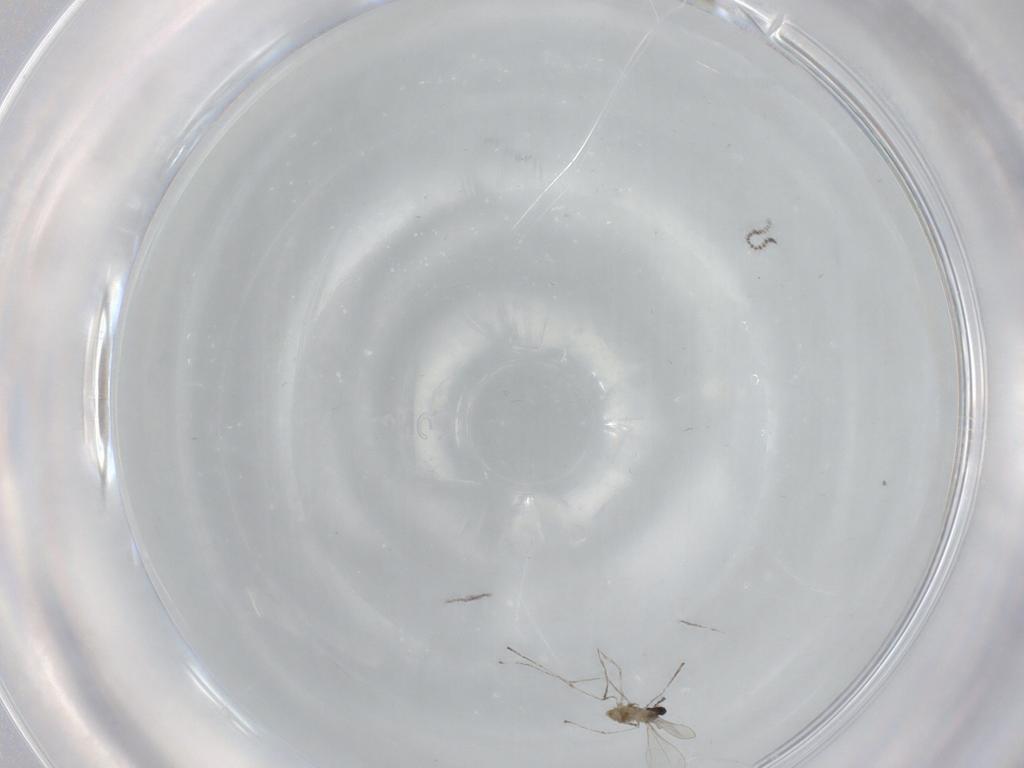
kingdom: Animalia
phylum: Arthropoda
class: Insecta
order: Diptera
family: Cecidomyiidae
